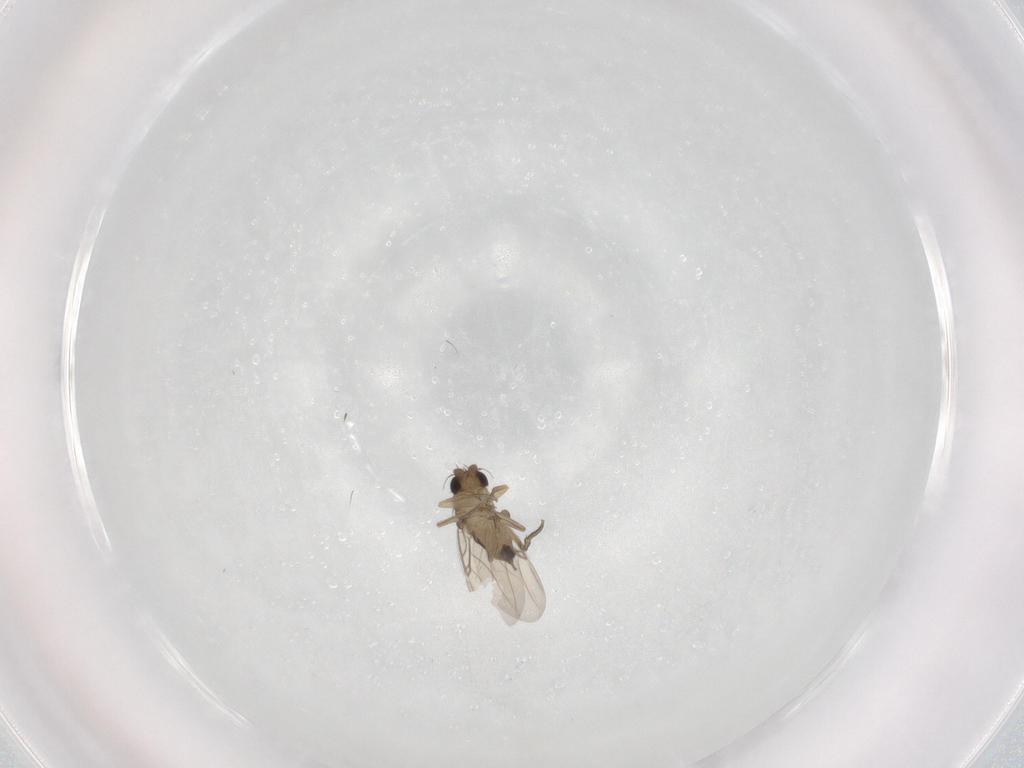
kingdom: Animalia
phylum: Arthropoda
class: Insecta
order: Diptera
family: Phoridae
